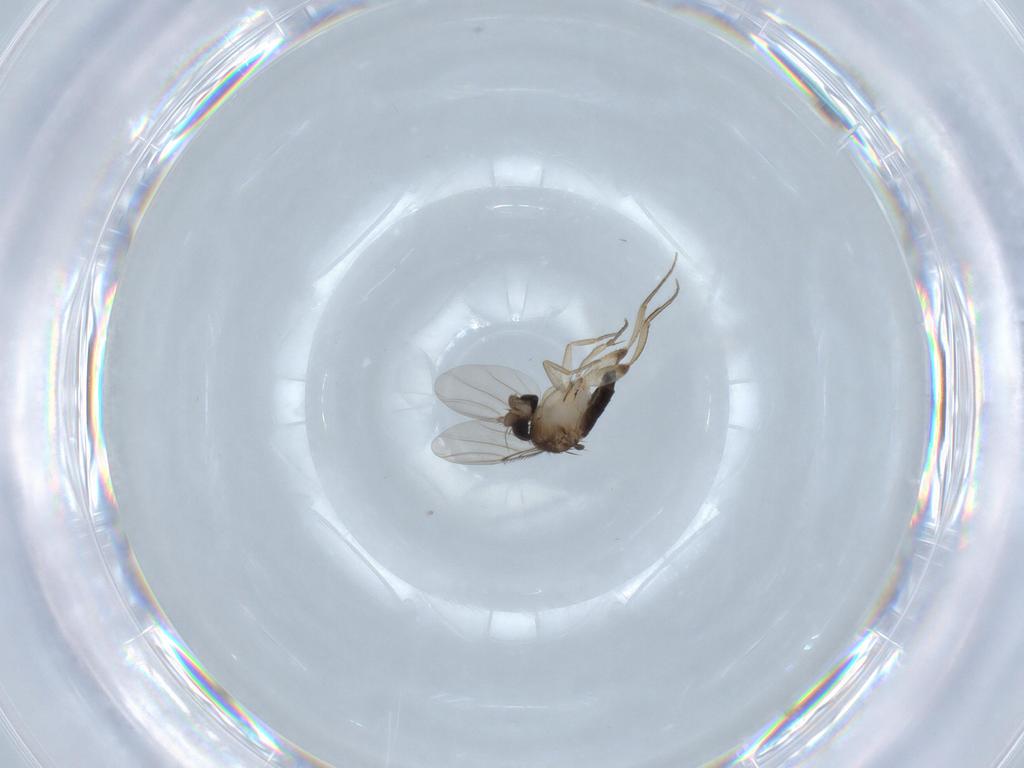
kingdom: Animalia
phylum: Arthropoda
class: Insecta
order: Diptera
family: Phoridae
